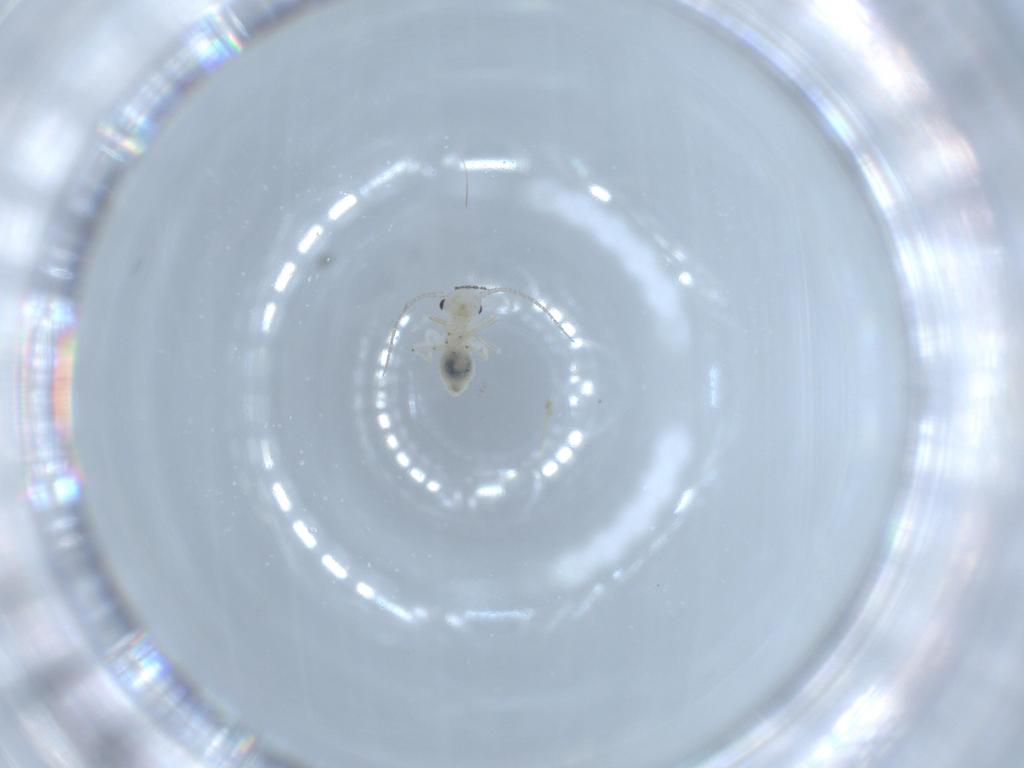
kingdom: Animalia
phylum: Arthropoda
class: Insecta
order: Psocodea
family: Caeciliusidae
